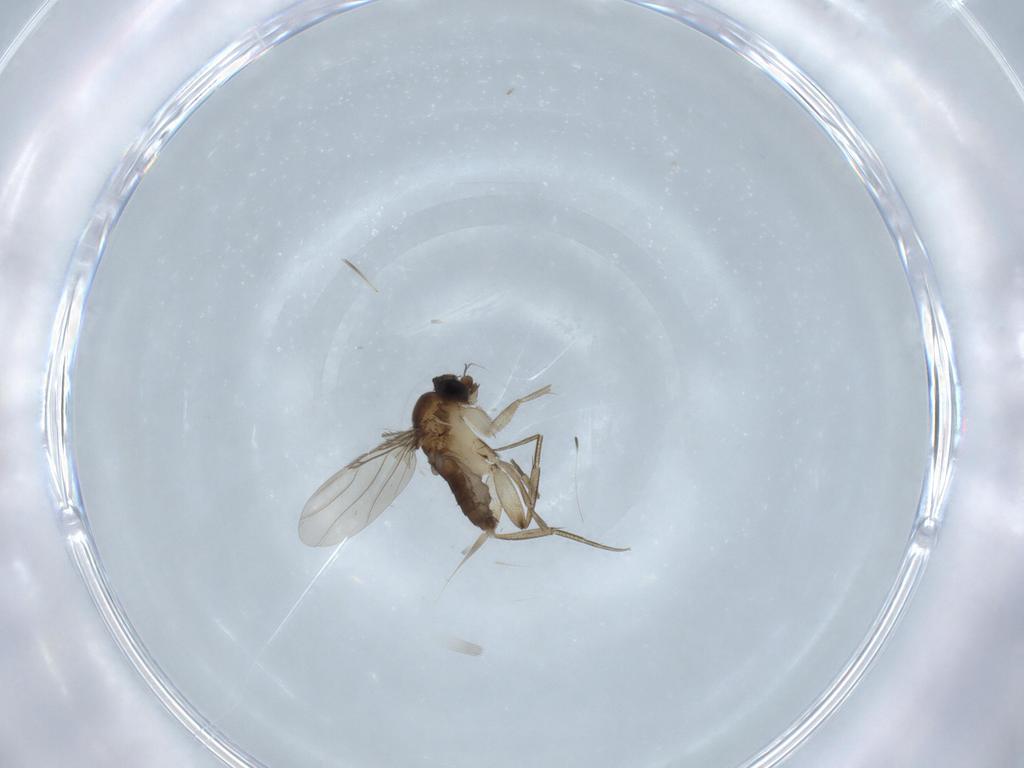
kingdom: Animalia
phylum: Arthropoda
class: Insecta
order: Diptera
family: Phoridae
